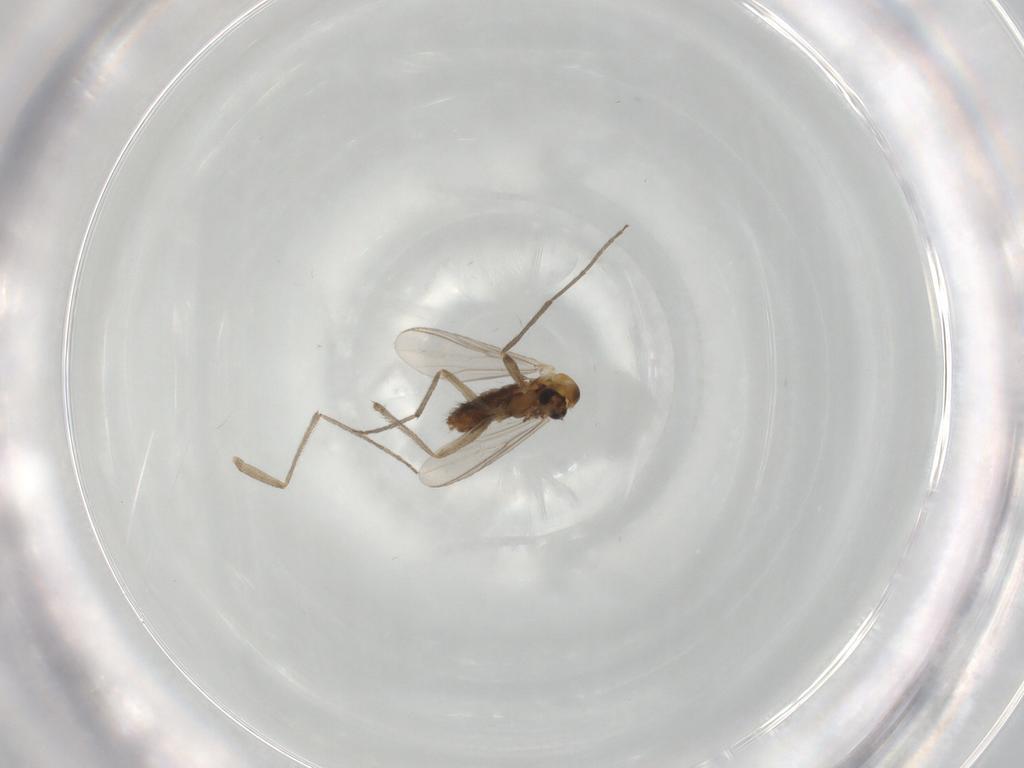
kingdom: Animalia
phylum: Arthropoda
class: Insecta
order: Diptera
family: Chironomidae
